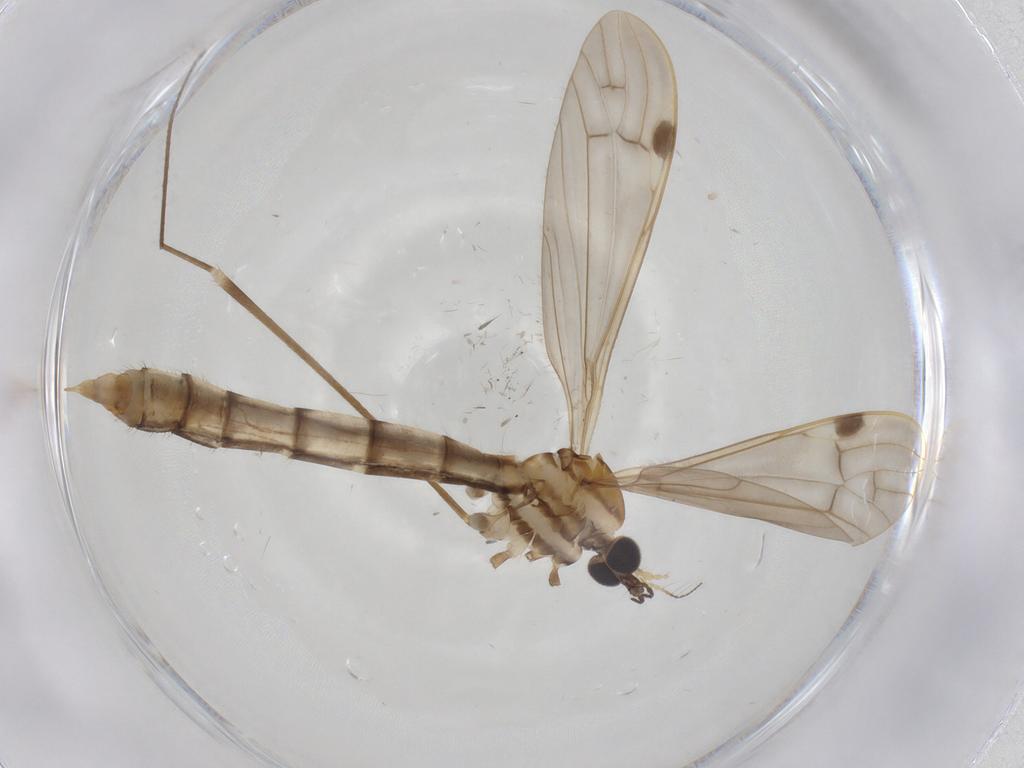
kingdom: Animalia
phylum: Arthropoda
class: Insecta
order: Diptera
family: Limoniidae
